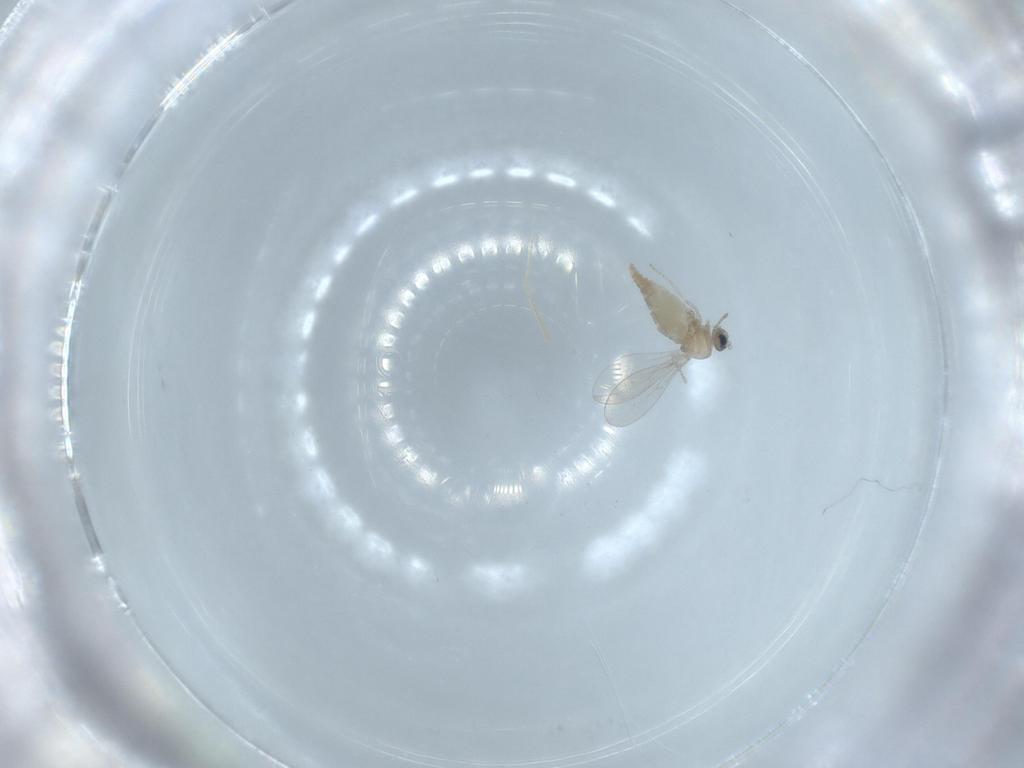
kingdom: Animalia
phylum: Arthropoda
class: Insecta
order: Diptera
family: Cecidomyiidae
